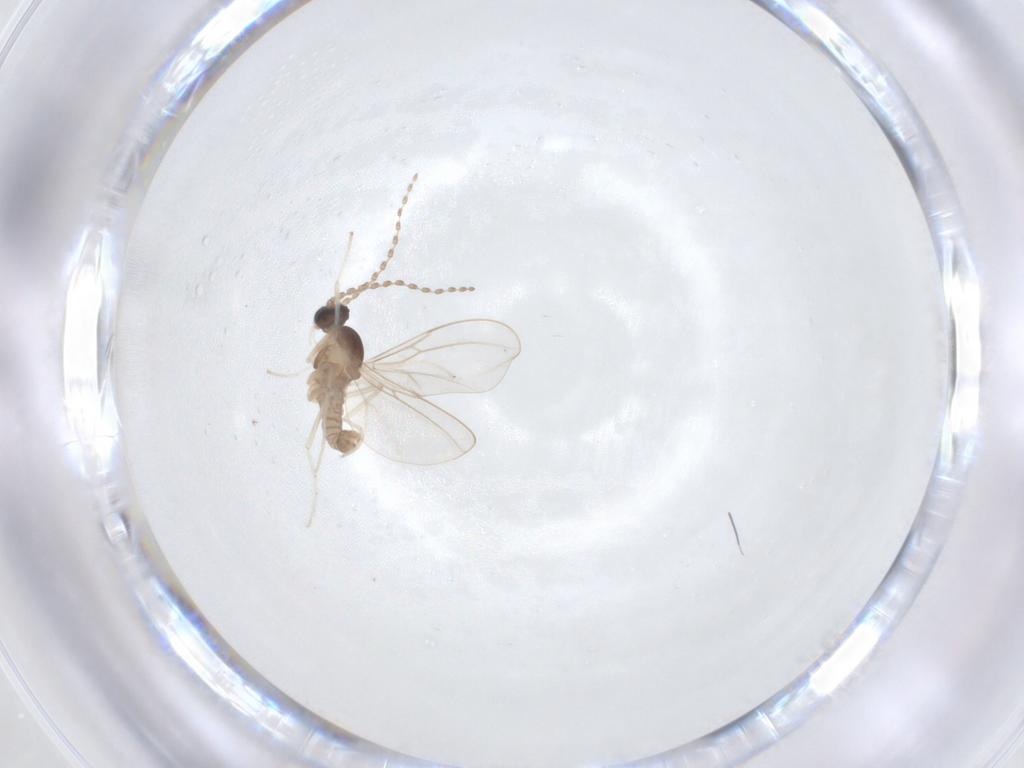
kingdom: Animalia
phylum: Arthropoda
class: Insecta
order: Diptera
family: Cecidomyiidae
